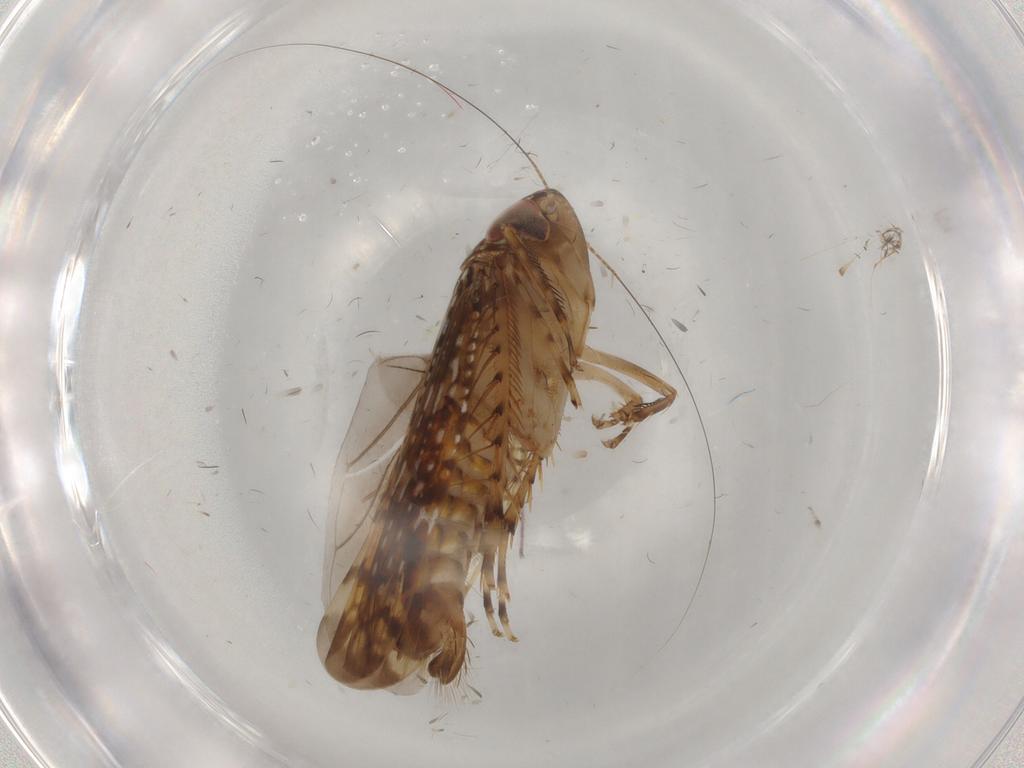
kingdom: Animalia
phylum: Arthropoda
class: Insecta
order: Hemiptera
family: Cicadellidae
